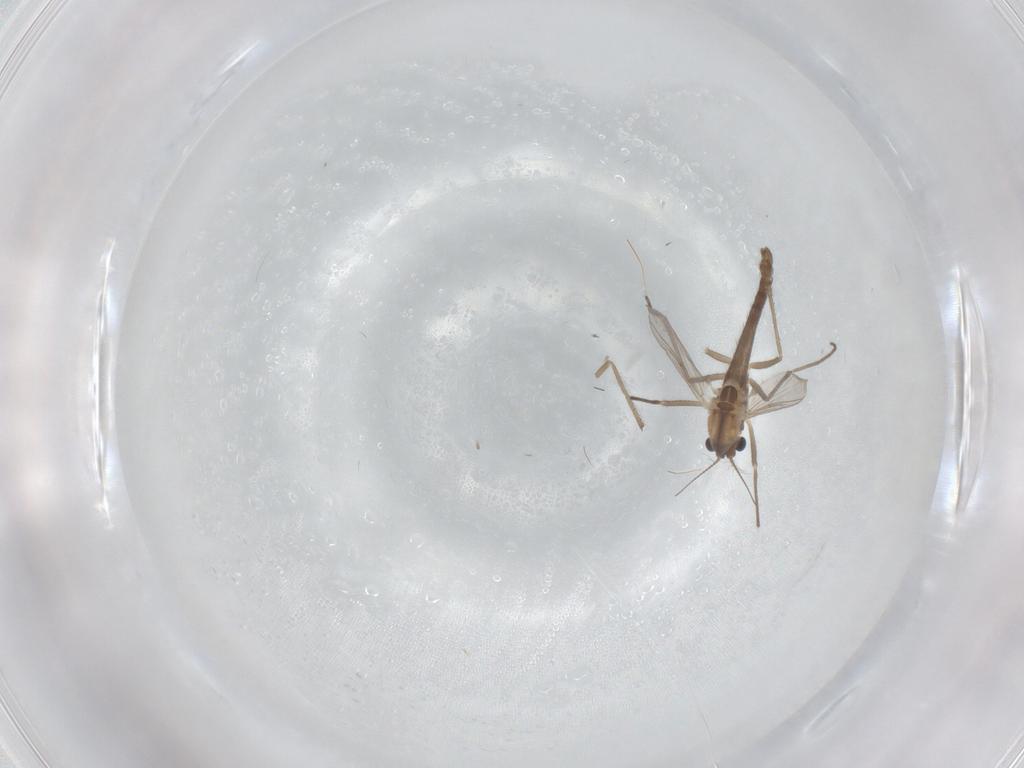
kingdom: Animalia
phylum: Arthropoda
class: Insecta
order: Diptera
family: Chironomidae
